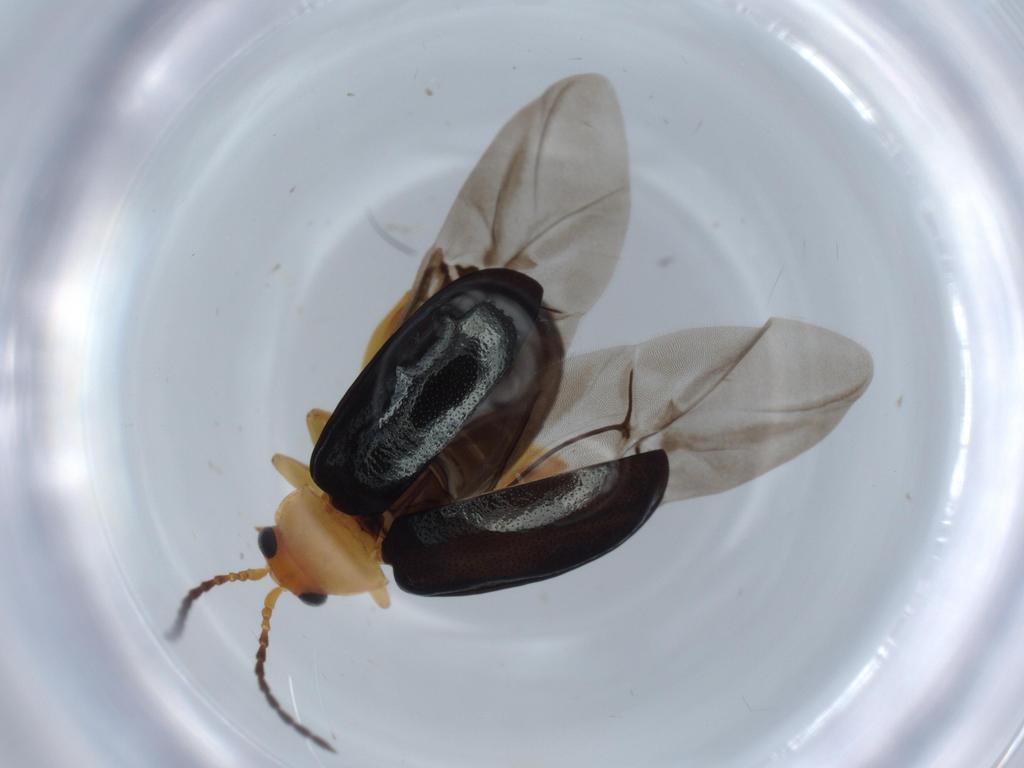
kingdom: Animalia
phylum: Arthropoda
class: Insecta
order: Coleoptera
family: Chrysomelidae
